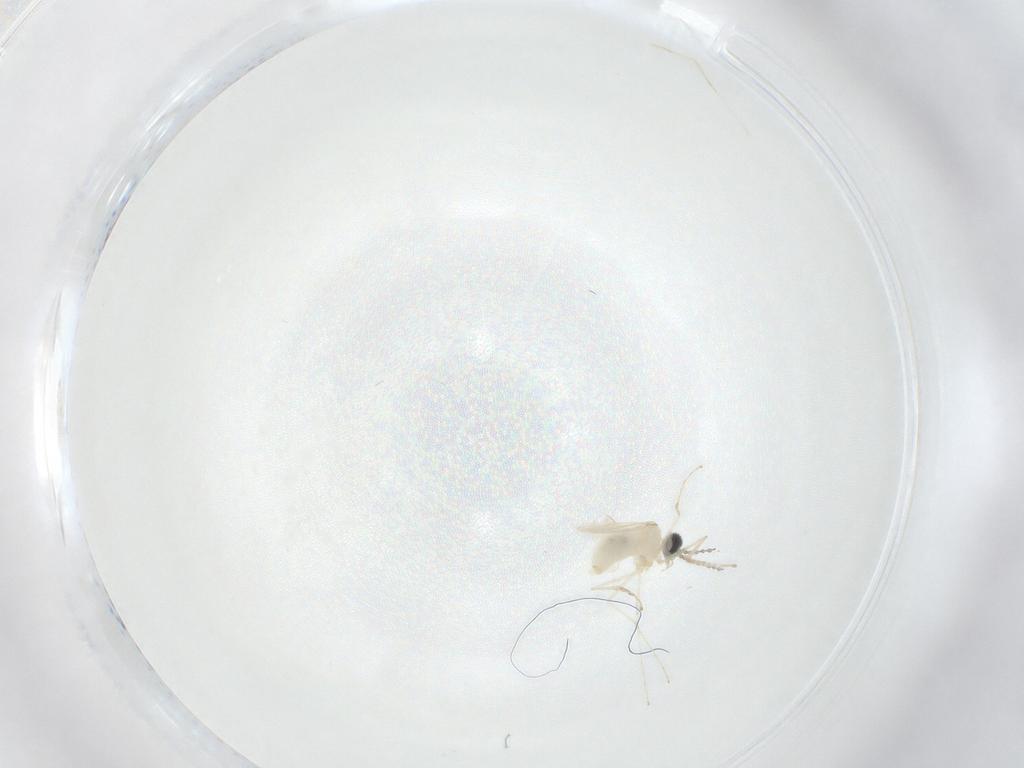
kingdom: Animalia
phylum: Arthropoda
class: Insecta
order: Diptera
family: Cecidomyiidae
